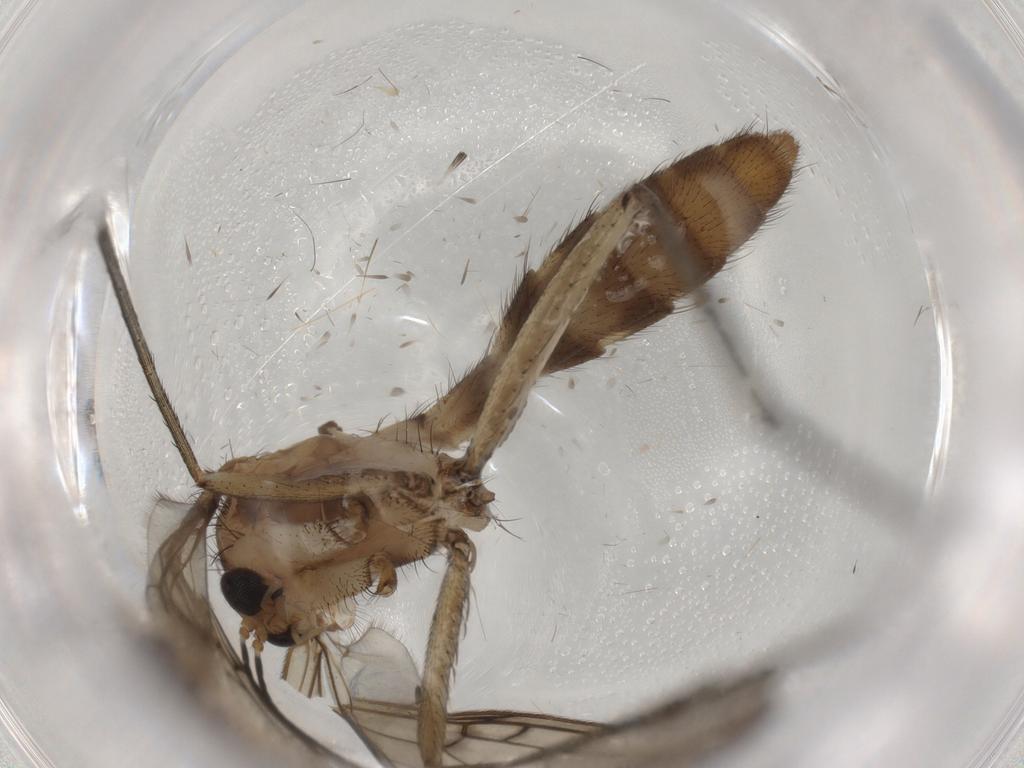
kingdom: Animalia
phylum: Arthropoda
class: Insecta
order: Diptera
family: Sciaridae
